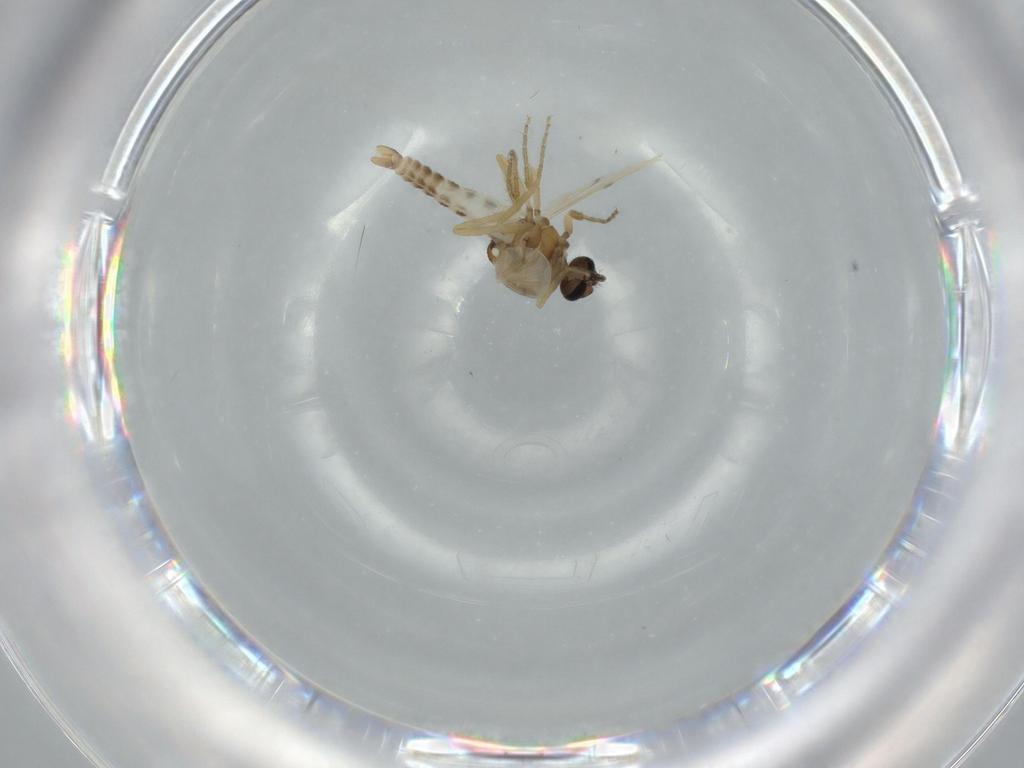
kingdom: Animalia
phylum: Arthropoda
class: Insecta
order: Diptera
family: Ceratopogonidae
